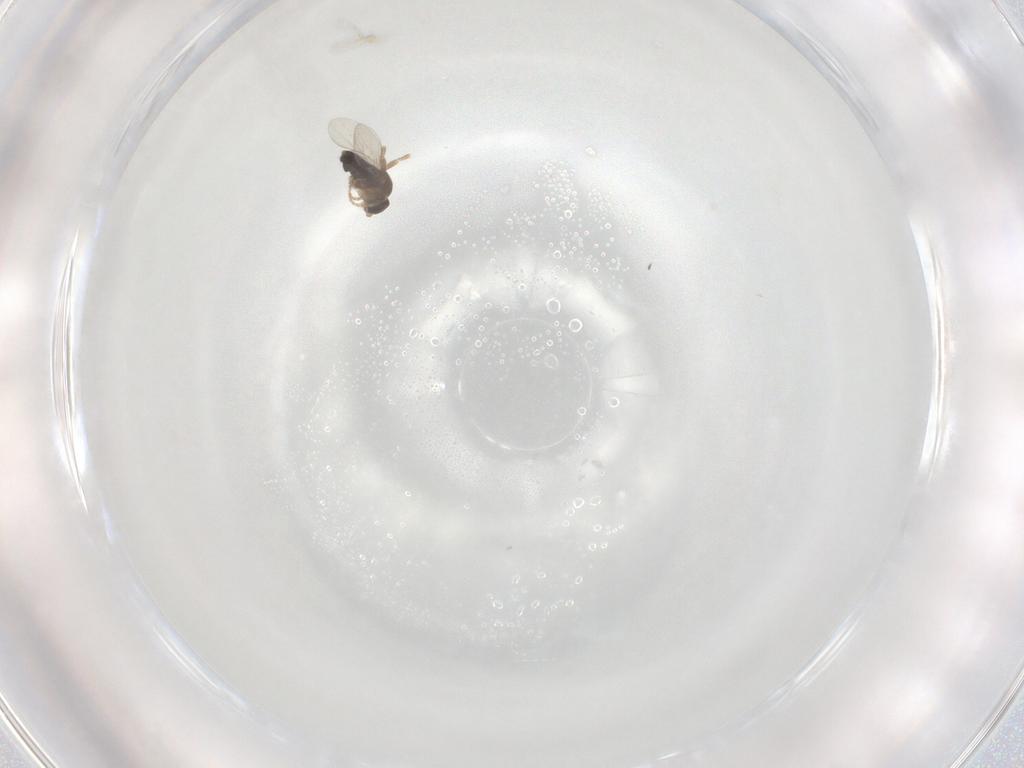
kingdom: Animalia
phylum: Arthropoda
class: Insecta
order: Diptera
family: Phoridae
